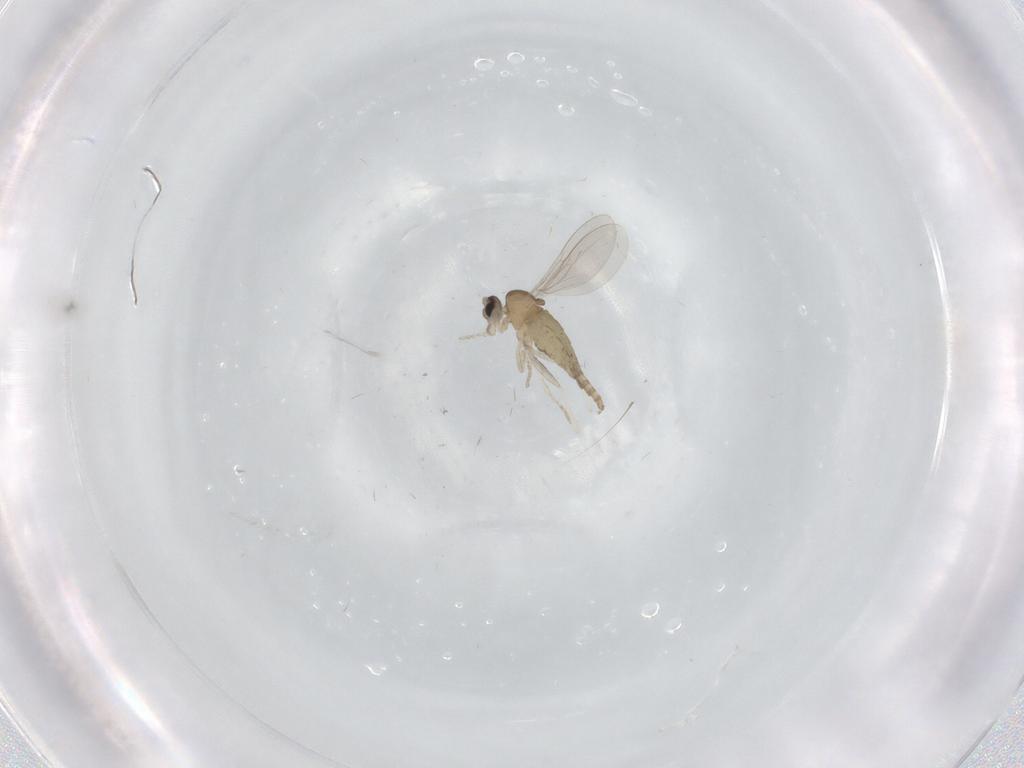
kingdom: Animalia
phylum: Arthropoda
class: Insecta
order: Diptera
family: Cecidomyiidae
